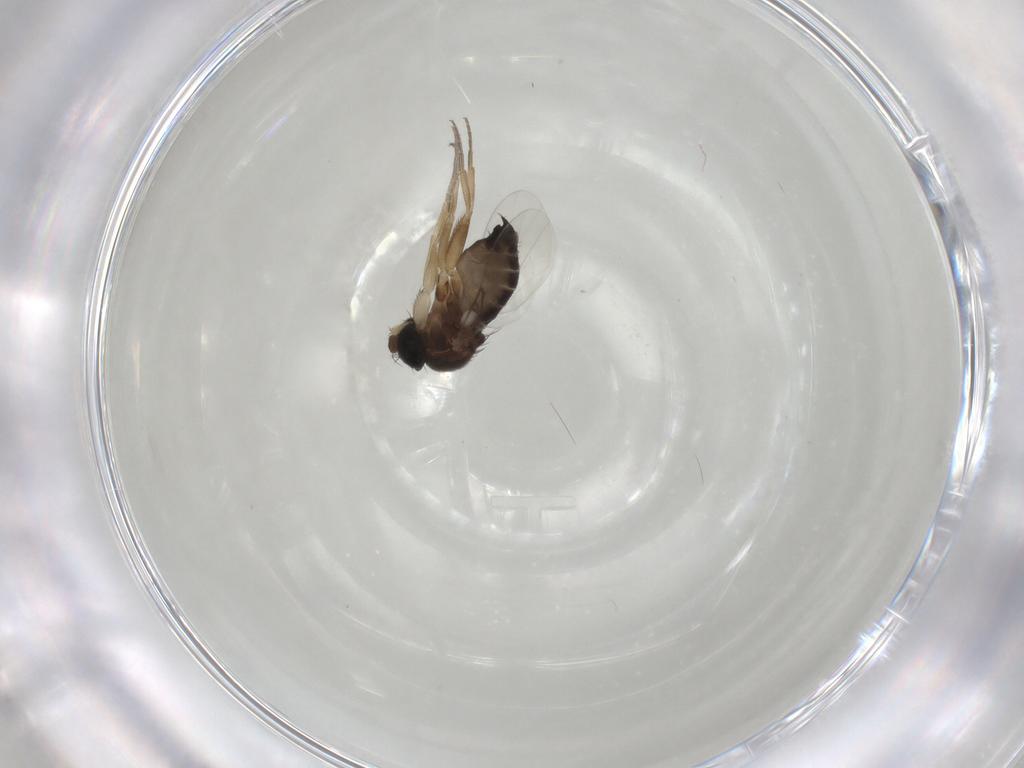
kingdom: Animalia
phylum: Arthropoda
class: Insecta
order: Diptera
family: Phoridae
